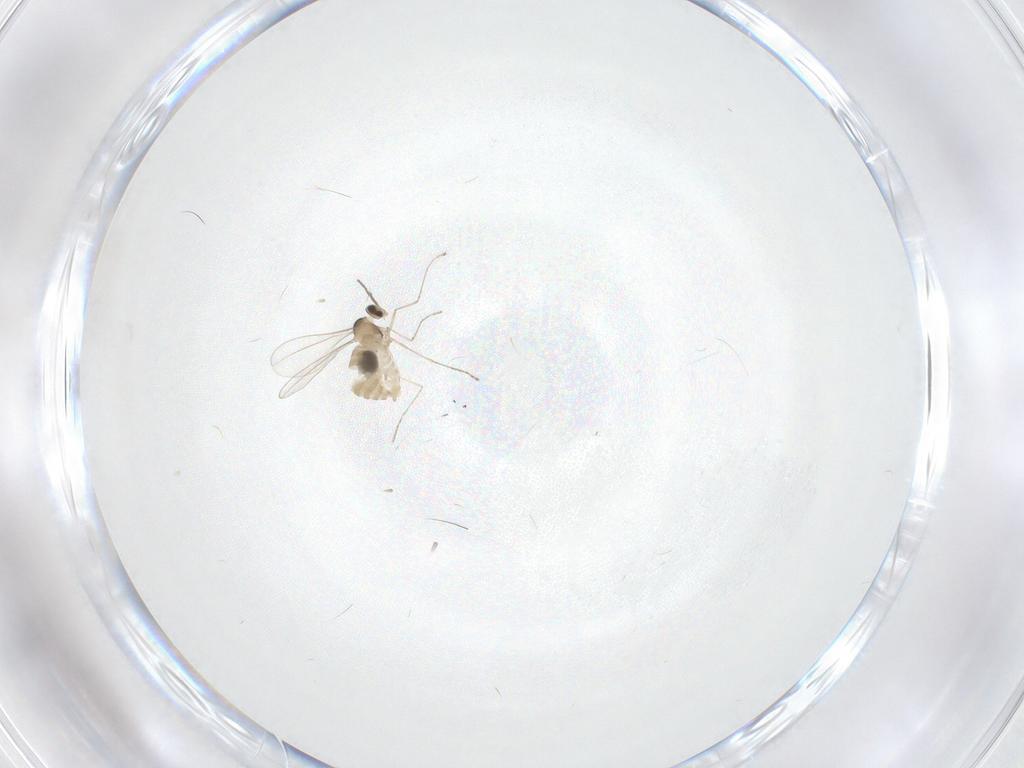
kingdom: Animalia
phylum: Arthropoda
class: Insecta
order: Diptera
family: Cecidomyiidae
